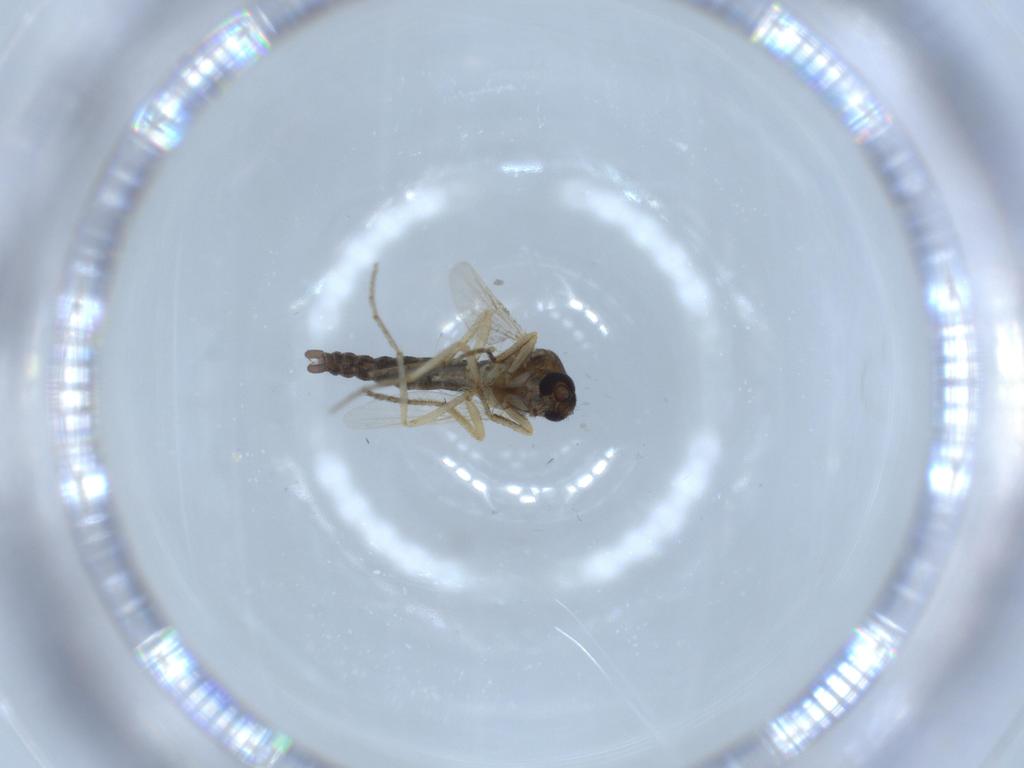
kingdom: Animalia
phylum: Arthropoda
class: Insecta
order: Diptera
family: Ceratopogonidae
